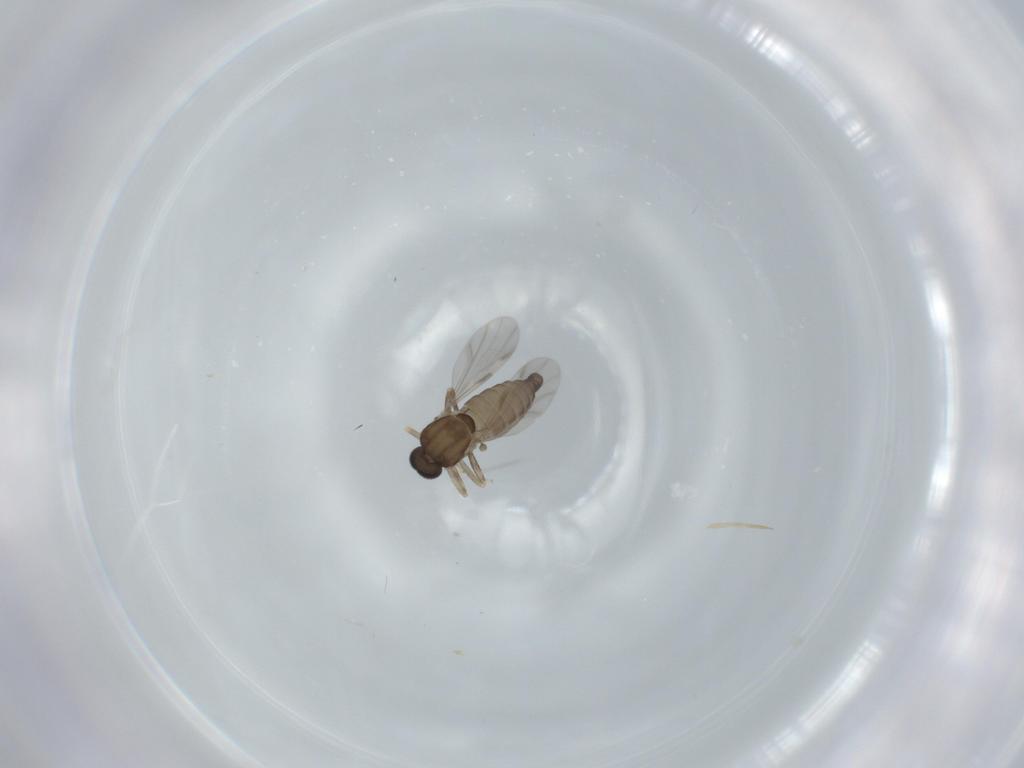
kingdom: Animalia
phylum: Arthropoda
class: Insecta
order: Diptera
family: Ceratopogonidae
